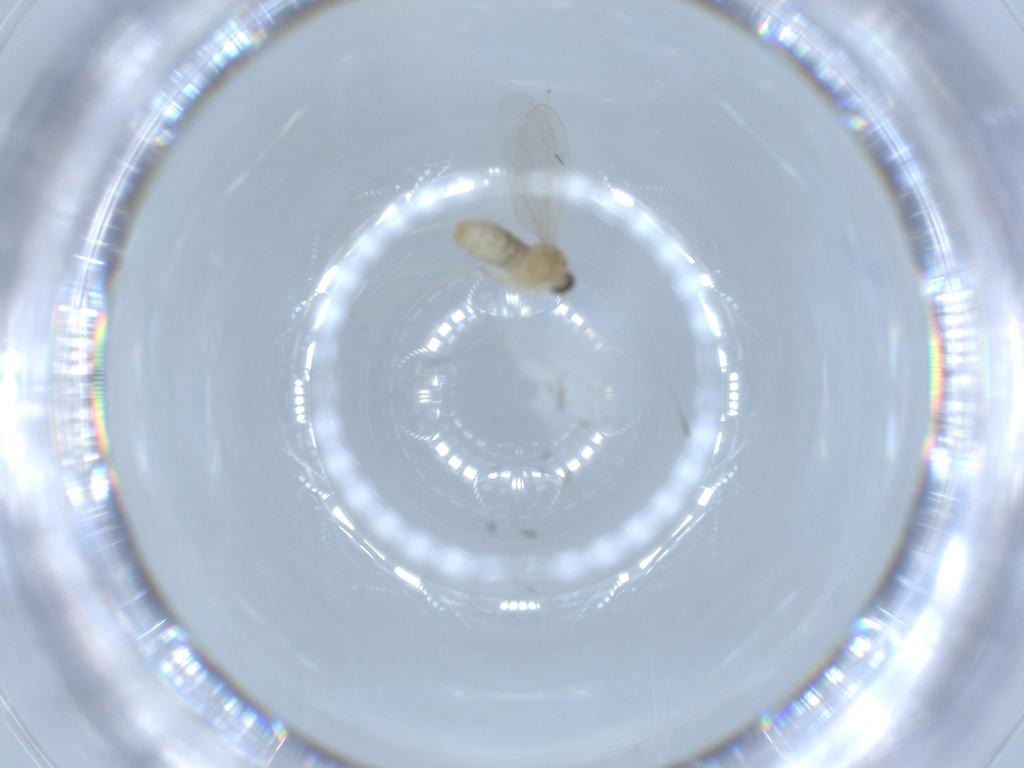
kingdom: Animalia
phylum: Arthropoda
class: Insecta
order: Diptera
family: Cecidomyiidae
